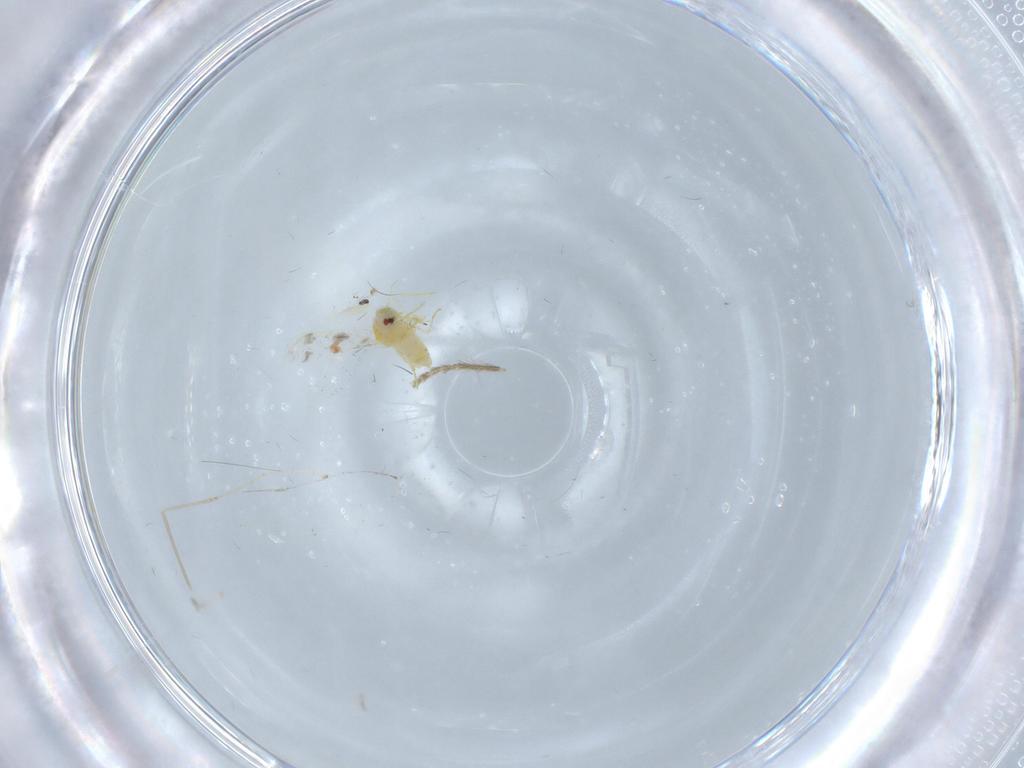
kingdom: Animalia
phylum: Arthropoda
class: Insecta
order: Hemiptera
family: Aleyrodidae
